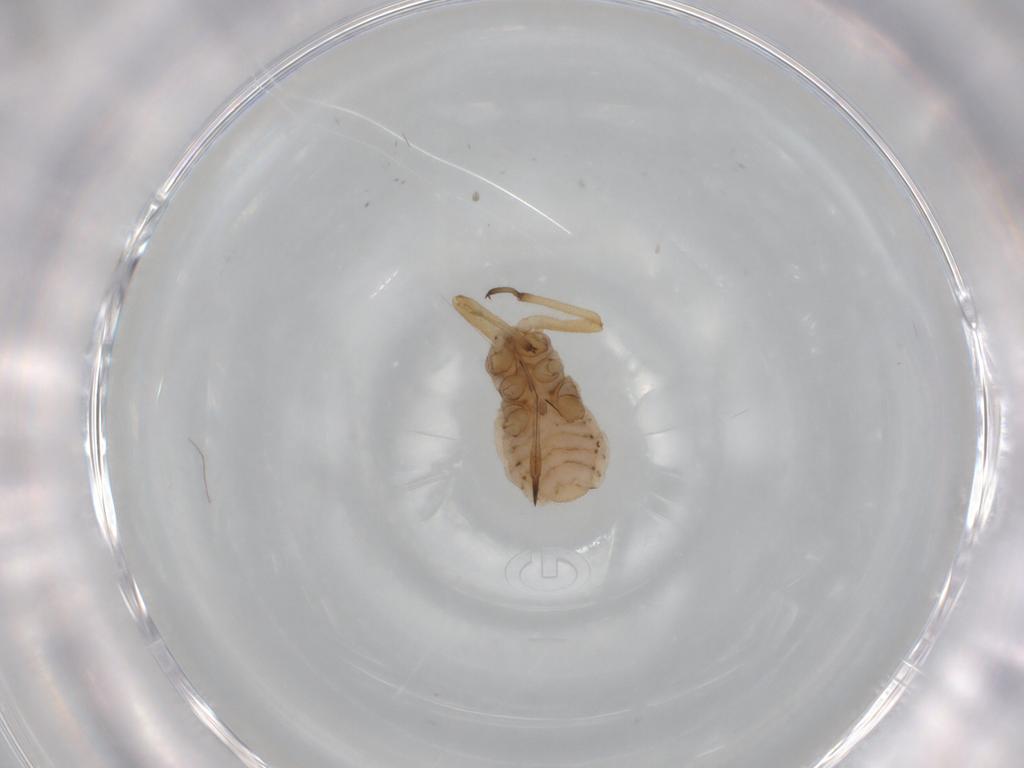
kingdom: Animalia
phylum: Arthropoda
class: Insecta
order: Hemiptera
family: Aphididae
